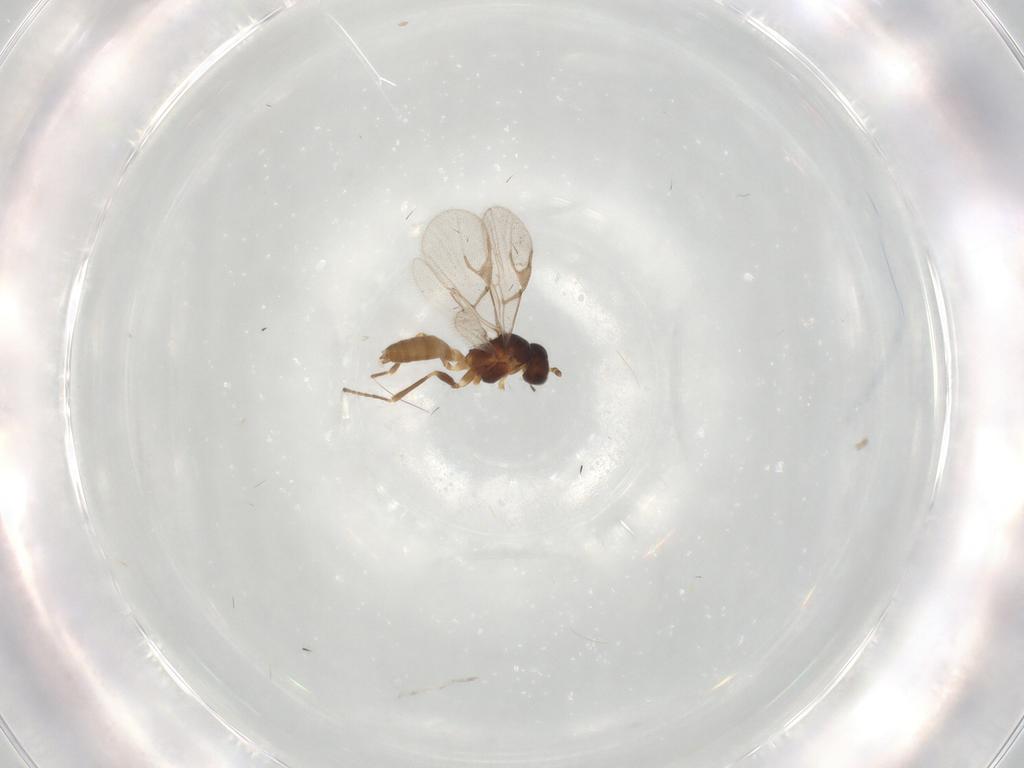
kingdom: Animalia
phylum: Arthropoda
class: Insecta
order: Hymenoptera
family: Braconidae
